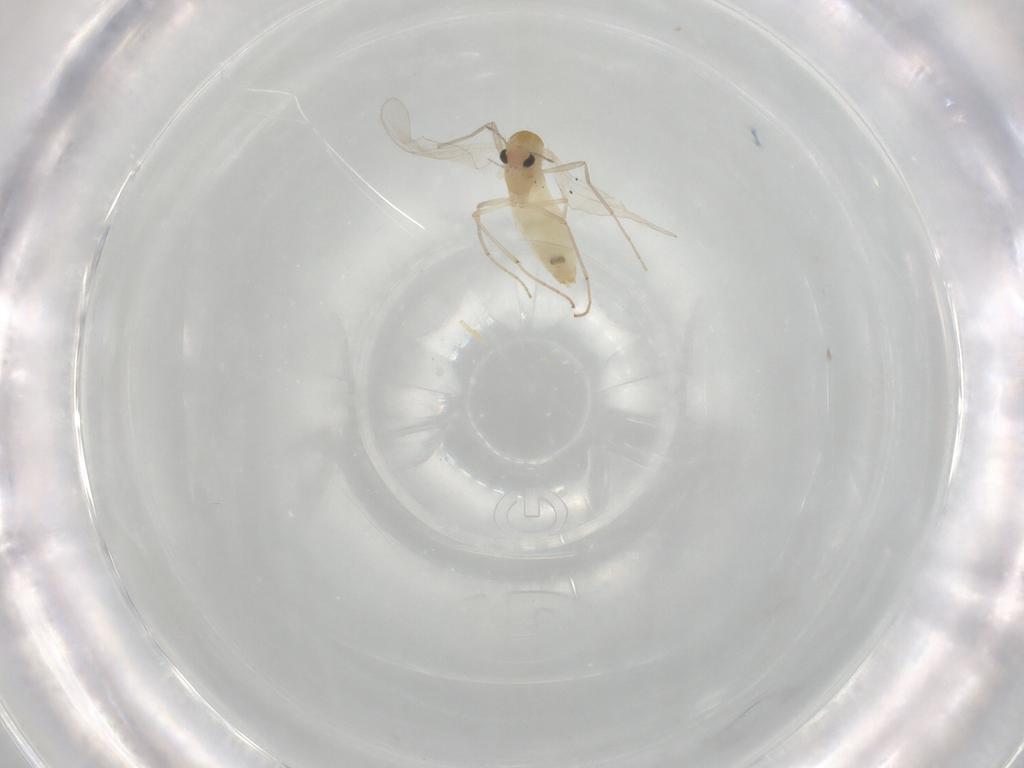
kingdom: Animalia
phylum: Arthropoda
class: Insecta
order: Diptera
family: Chironomidae
